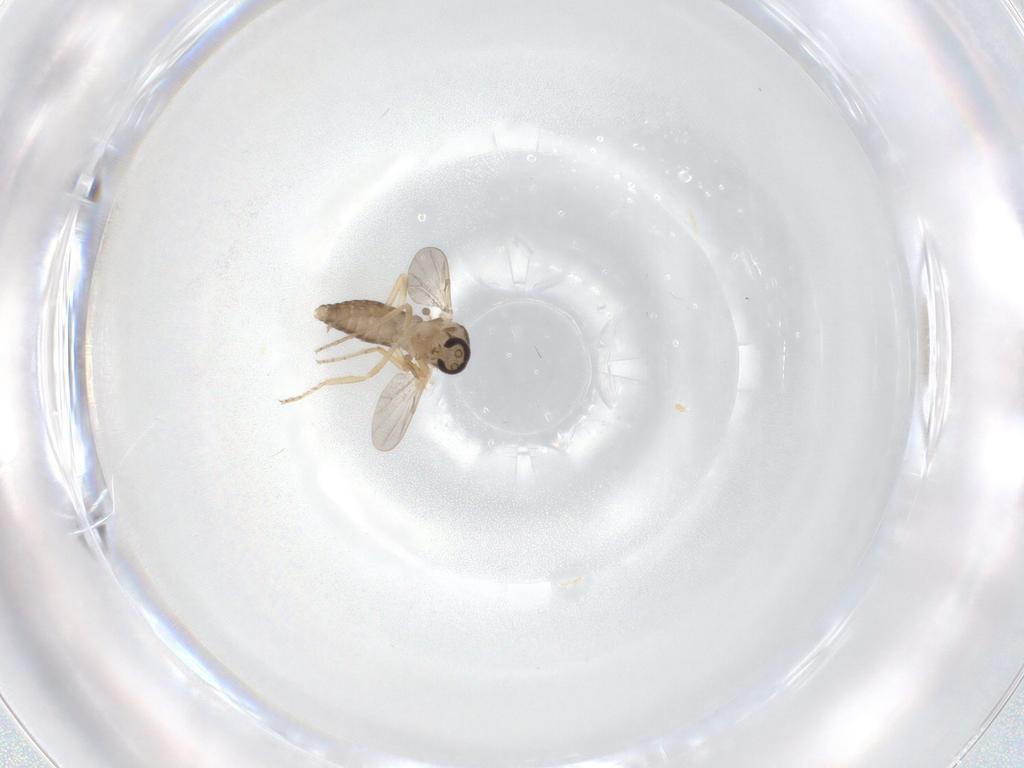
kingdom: Animalia
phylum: Arthropoda
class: Insecta
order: Diptera
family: Ceratopogonidae
